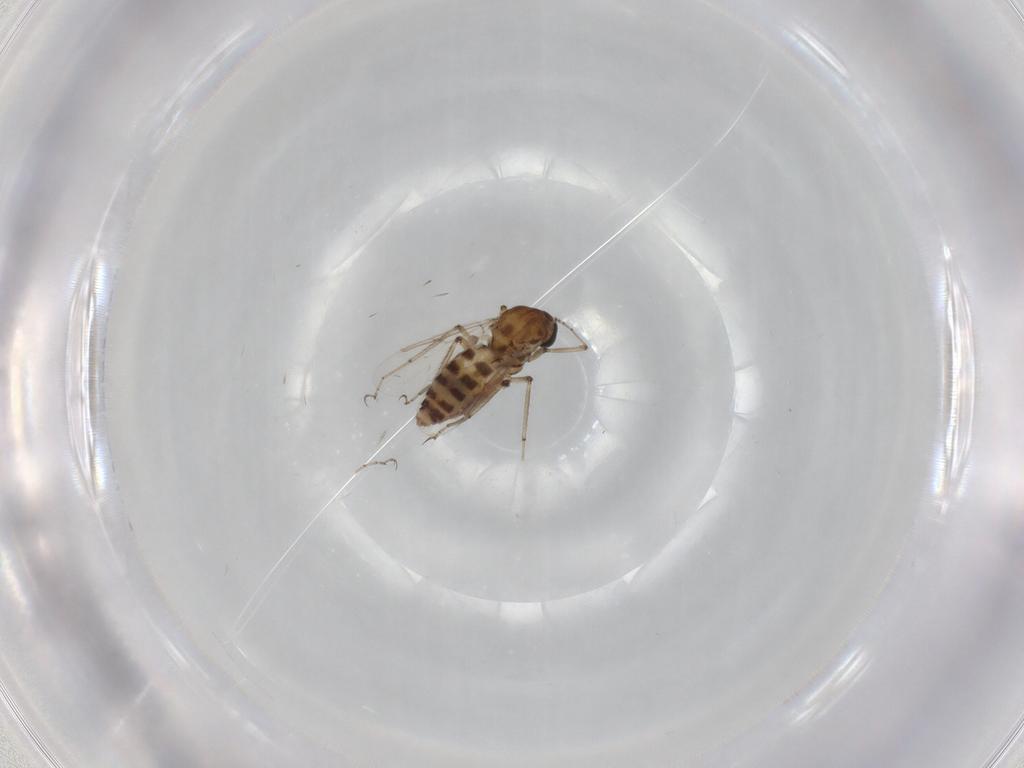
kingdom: Animalia
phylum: Arthropoda
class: Insecta
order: Diptera
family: Ceratopogonidae
